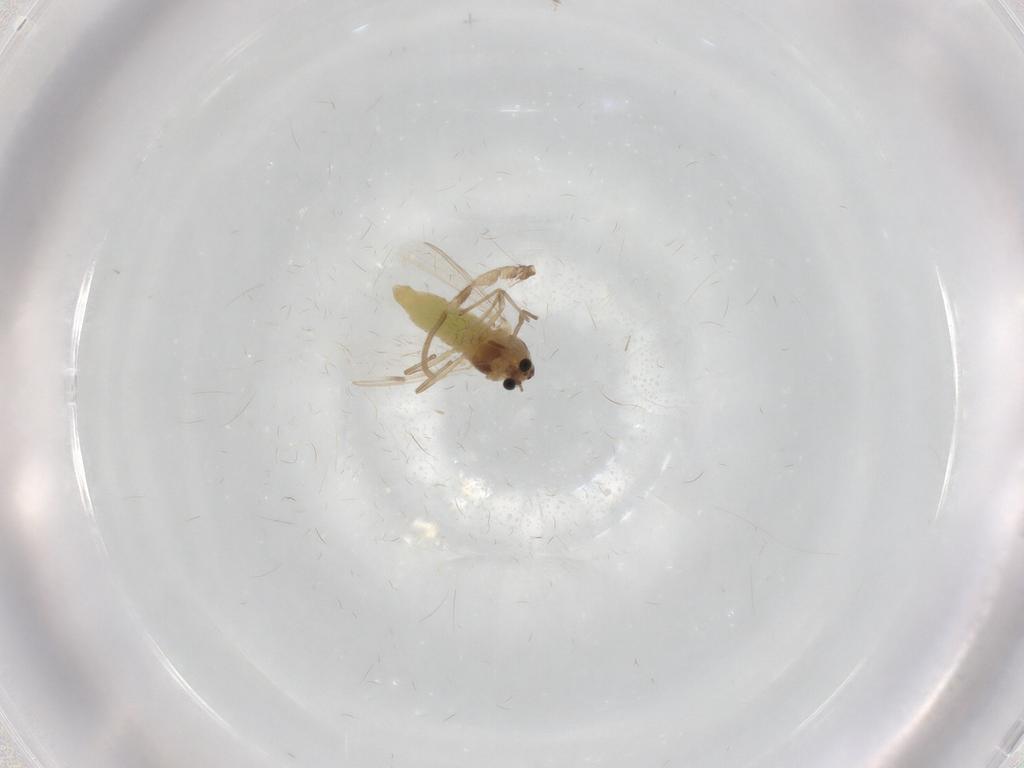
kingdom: Animalia
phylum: Arthropoda
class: Insecta
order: Diptera
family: Chironomidae
